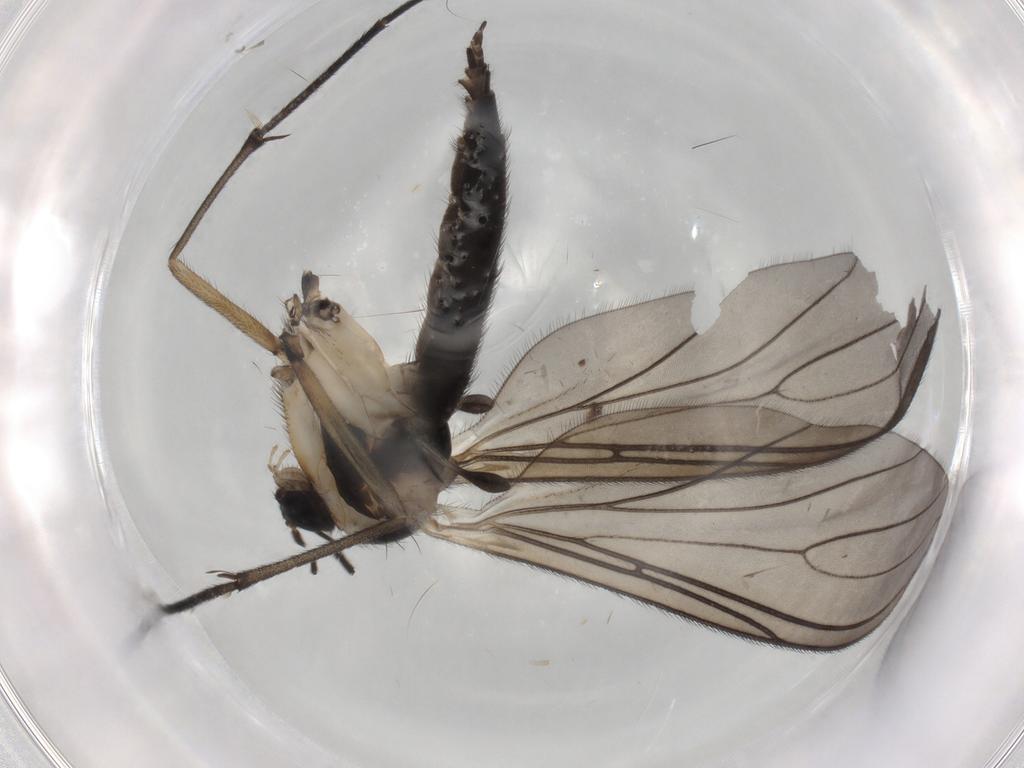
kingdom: Animalia
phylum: Arthropoda
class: Insecta
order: Diptera
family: Sciaridae
